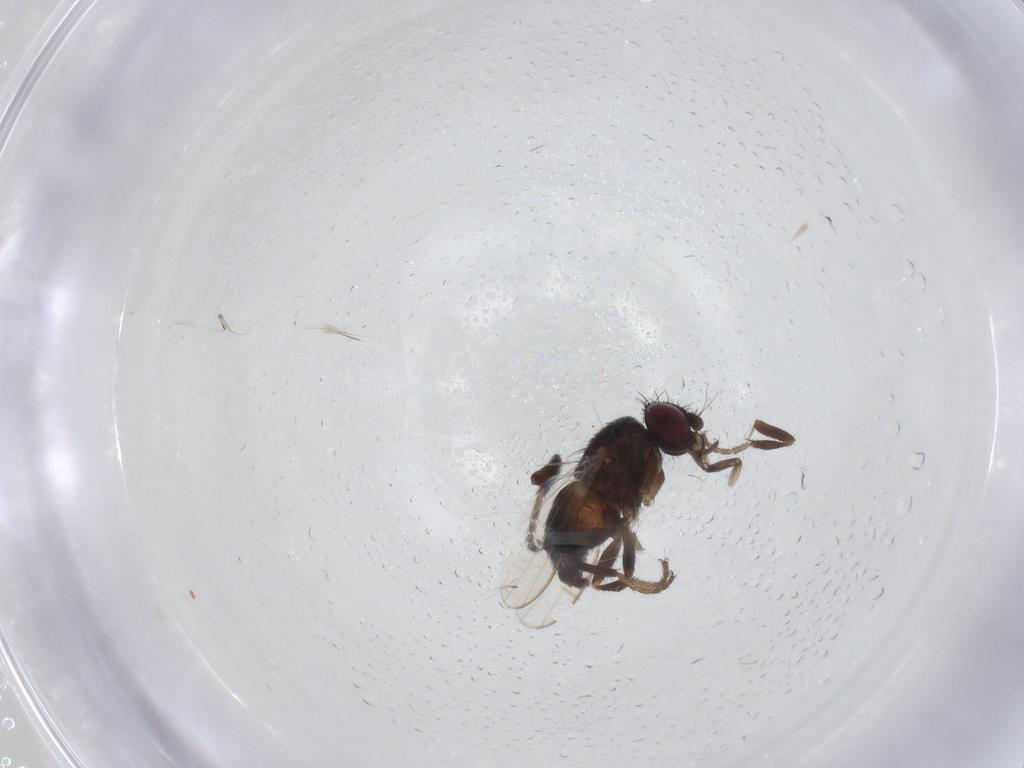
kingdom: Animalia
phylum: Arthropoda
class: Insecta
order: Diptera
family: Milichiidae
